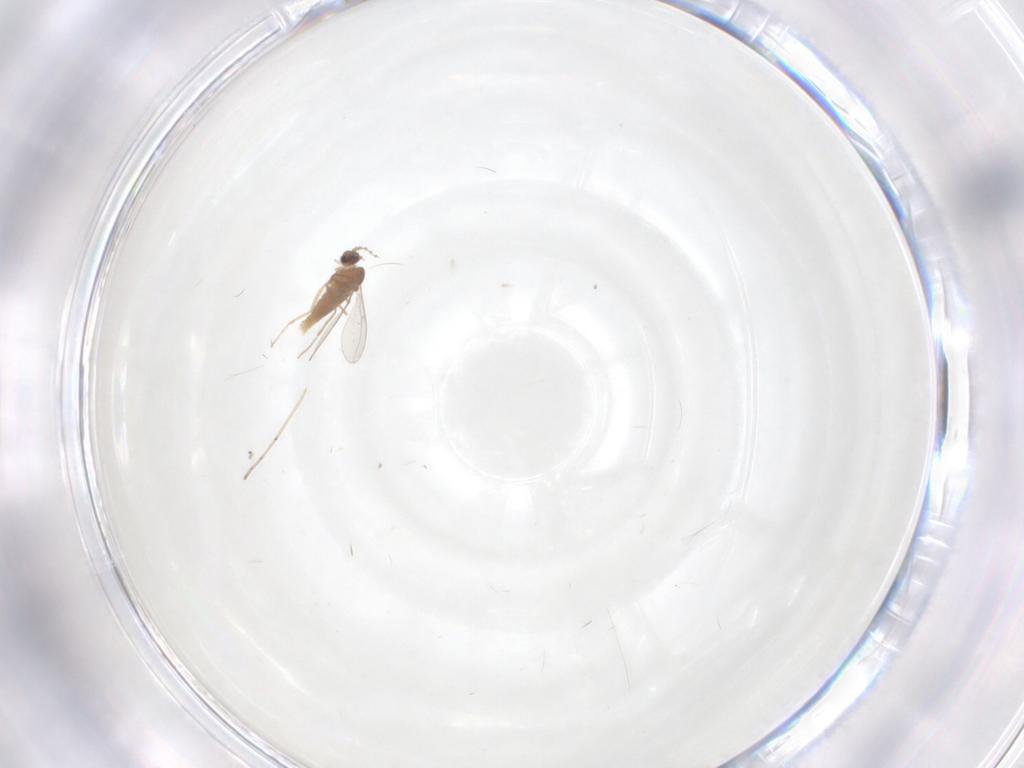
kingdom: Animalia
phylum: Arthropoda
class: Insecta
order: Diptera
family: Cecidomyiidae
